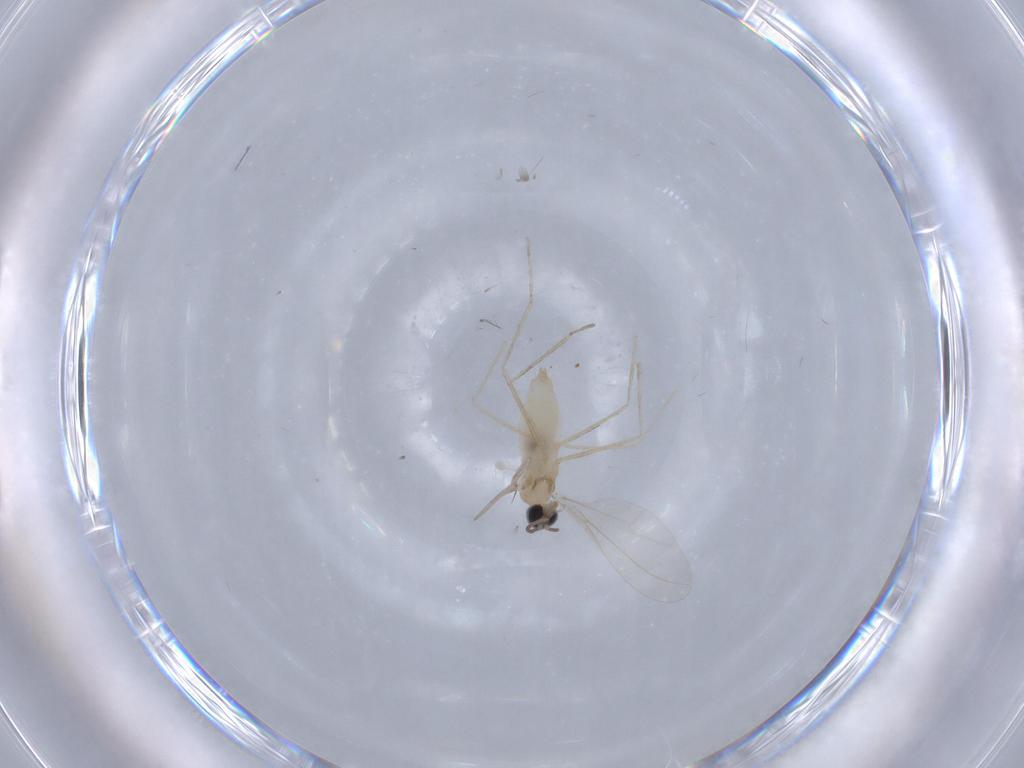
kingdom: Animalia
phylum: Arthropoda
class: Insecta
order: Diptera
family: Cecidomyiidae
